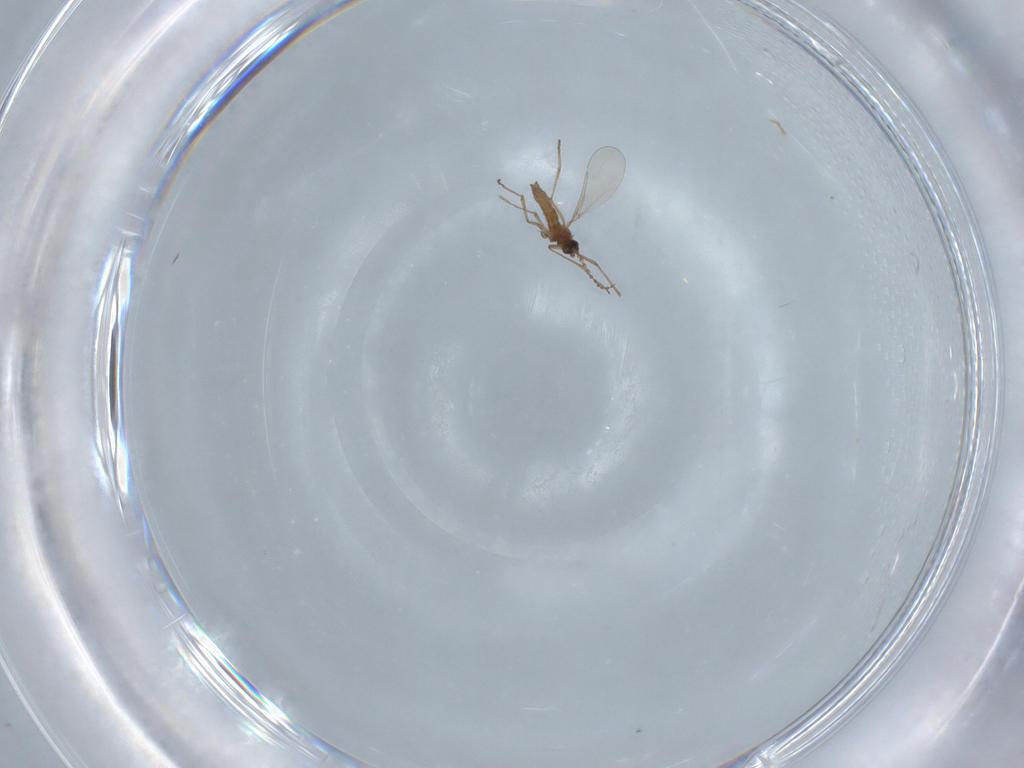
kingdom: Animalia
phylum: Arthropoda
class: Insecta
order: Diptera
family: Cecidomyiidae
